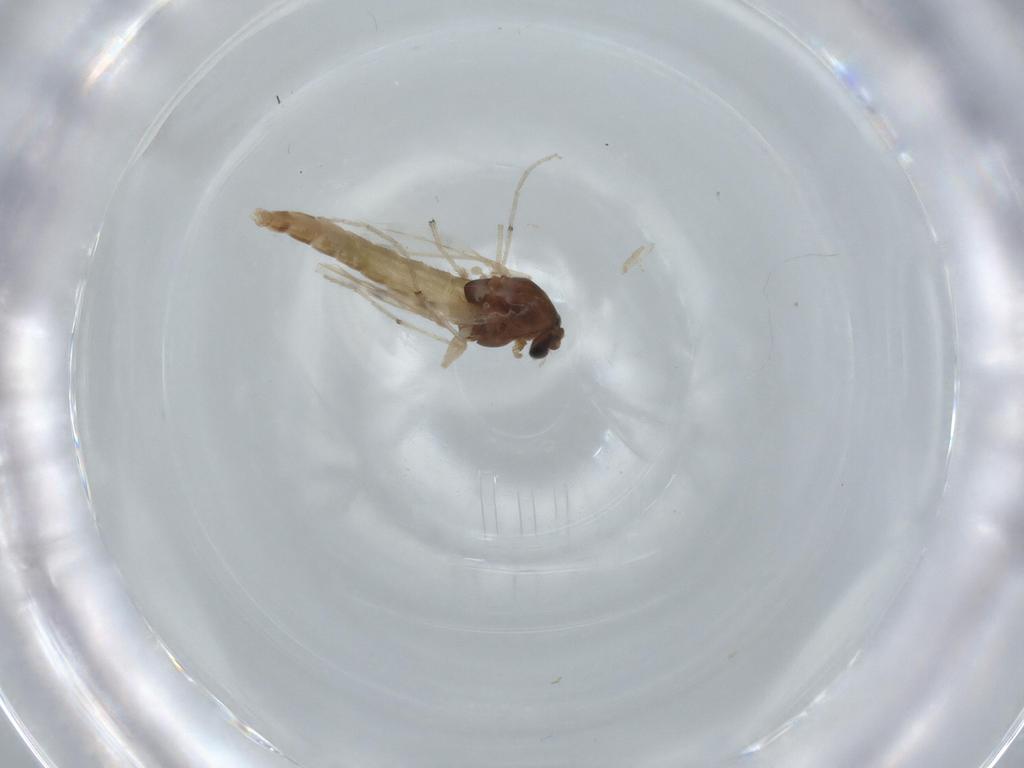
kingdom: Animalia
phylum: Arthropoda
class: Insecta
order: Diptera
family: Chironomidae
